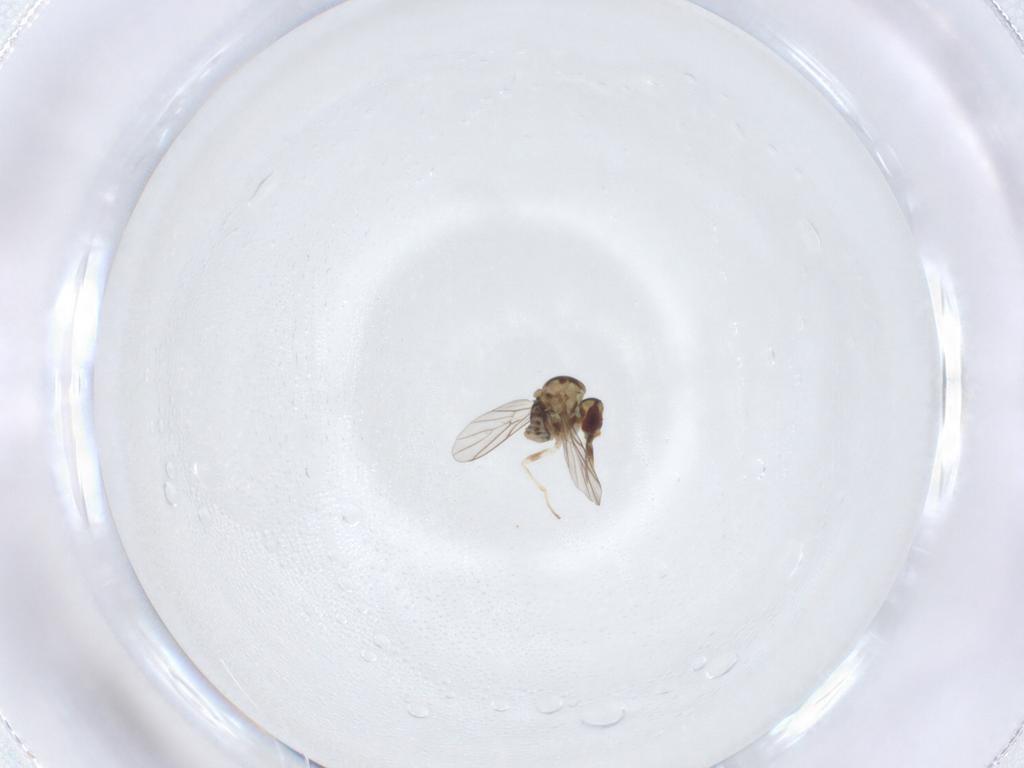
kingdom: Animalia
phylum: Arthropoda
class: Insecta
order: Diptera
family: Bombyliidae
